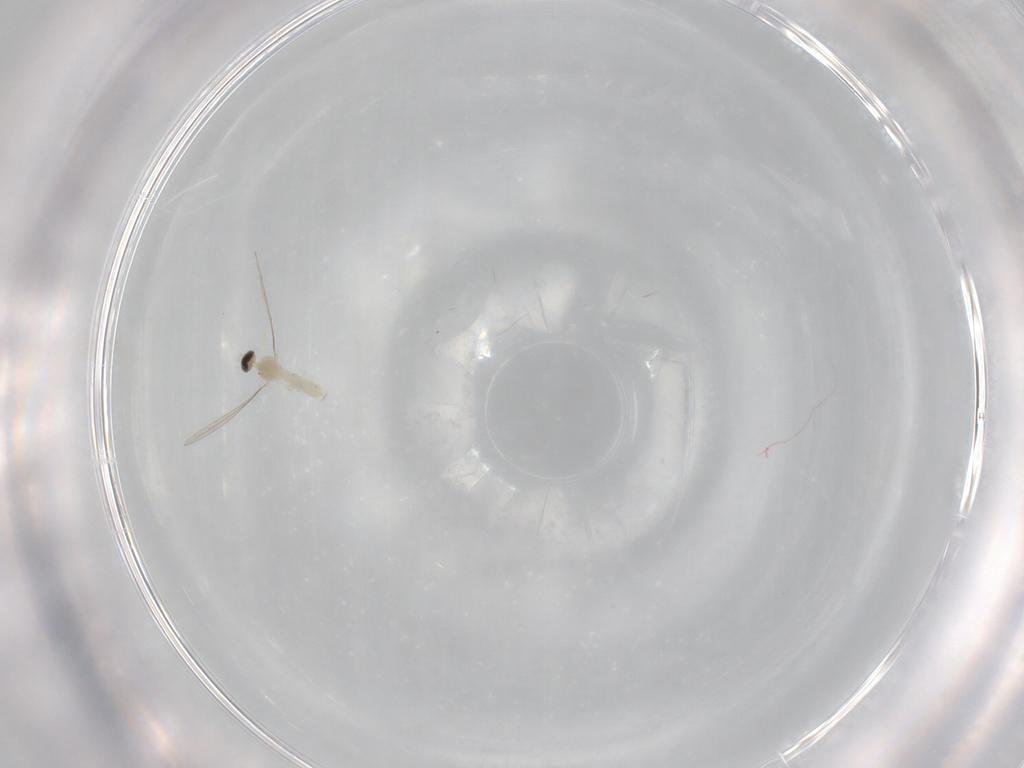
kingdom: Animalia
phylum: Arthropoda
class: Insecta
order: Diptera
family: Cecidomyiidae
